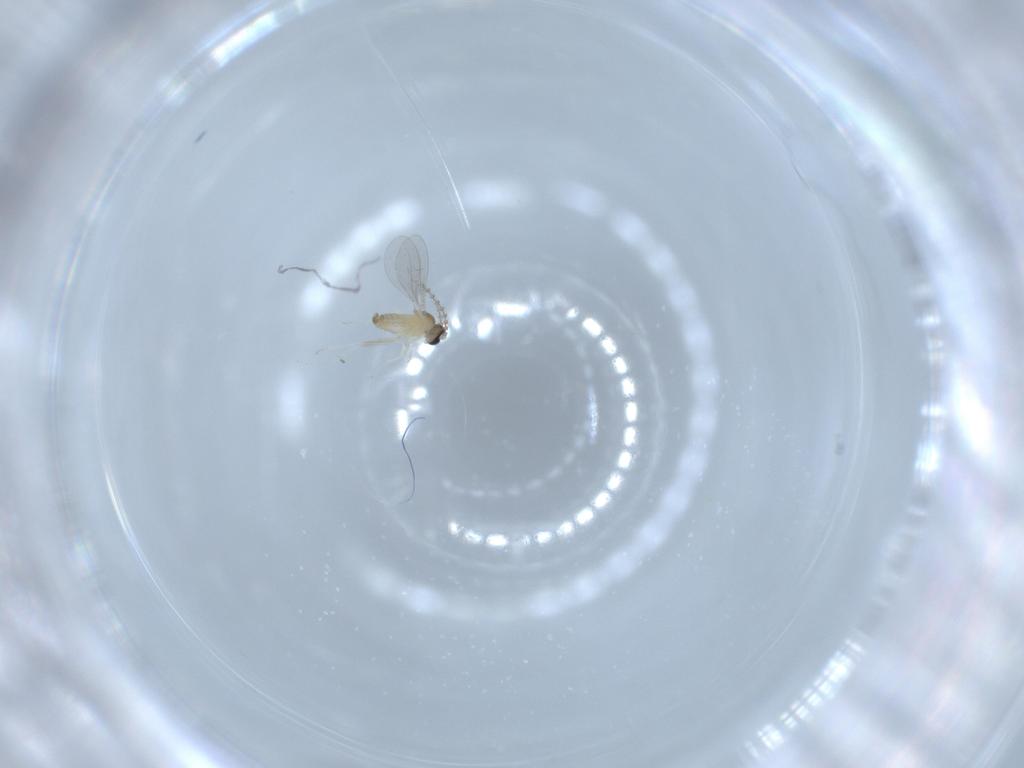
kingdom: Animalia
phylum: Arthropoda
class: Insecta
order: Diptera
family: Cecidomyiidae
